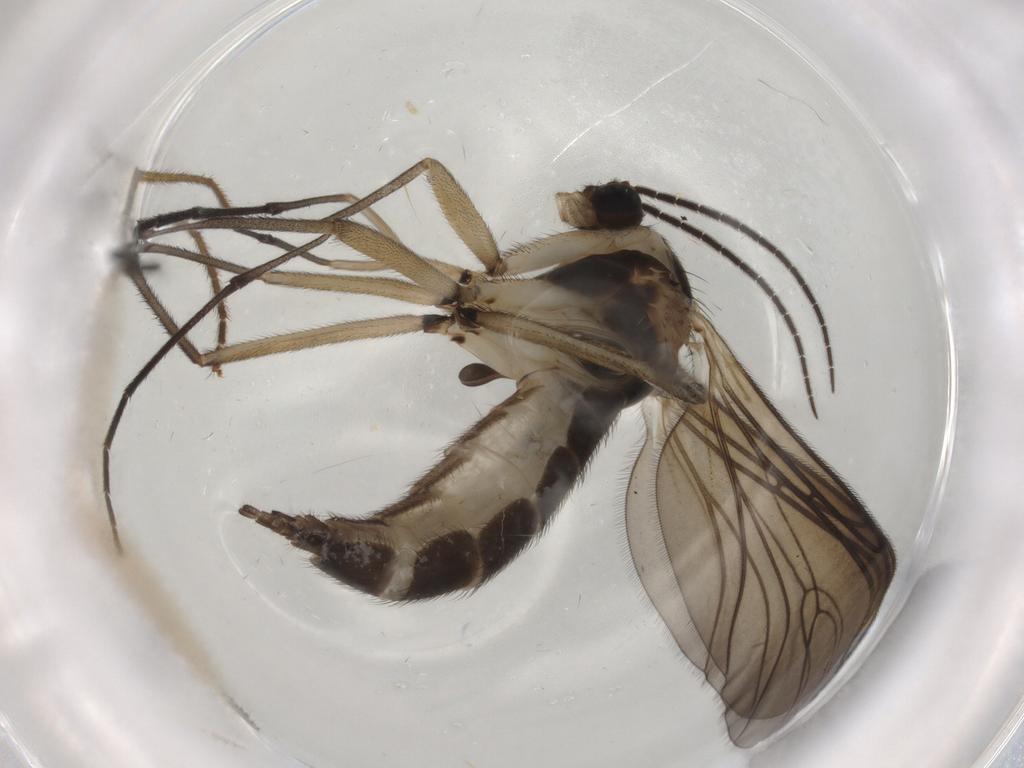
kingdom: Animalia
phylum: Arthropoda
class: Insecta
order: Diptera
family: Sciaridae
